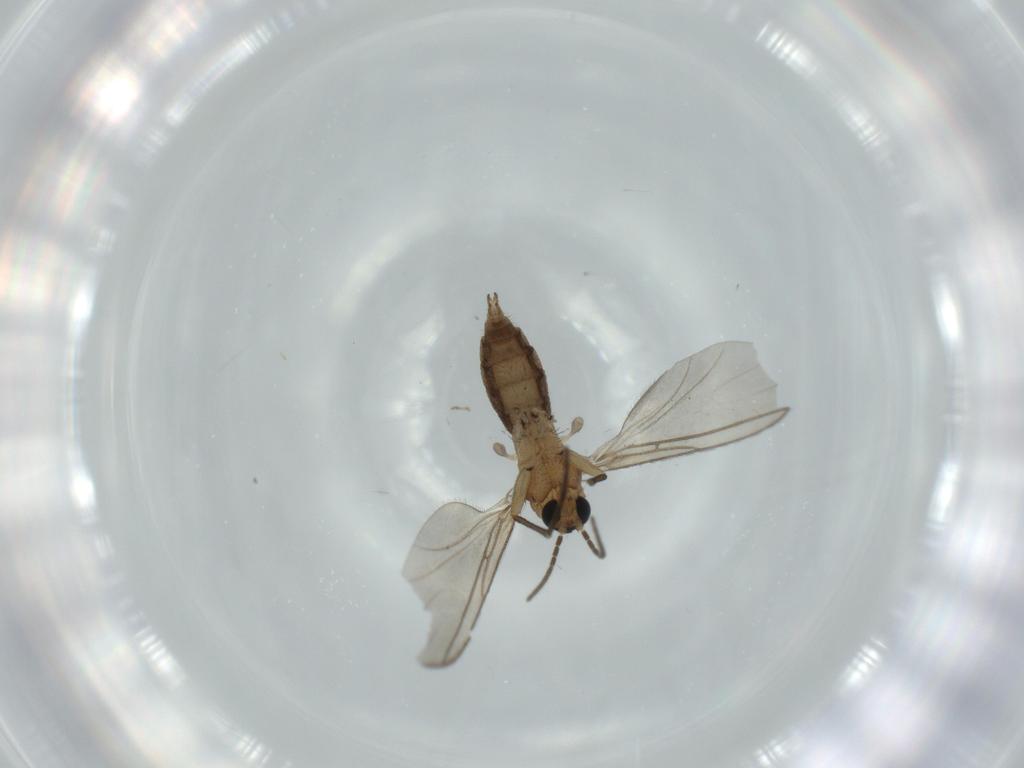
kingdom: Animalia
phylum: Arthropoda
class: Insecta
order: Diptera
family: Sciaridae
